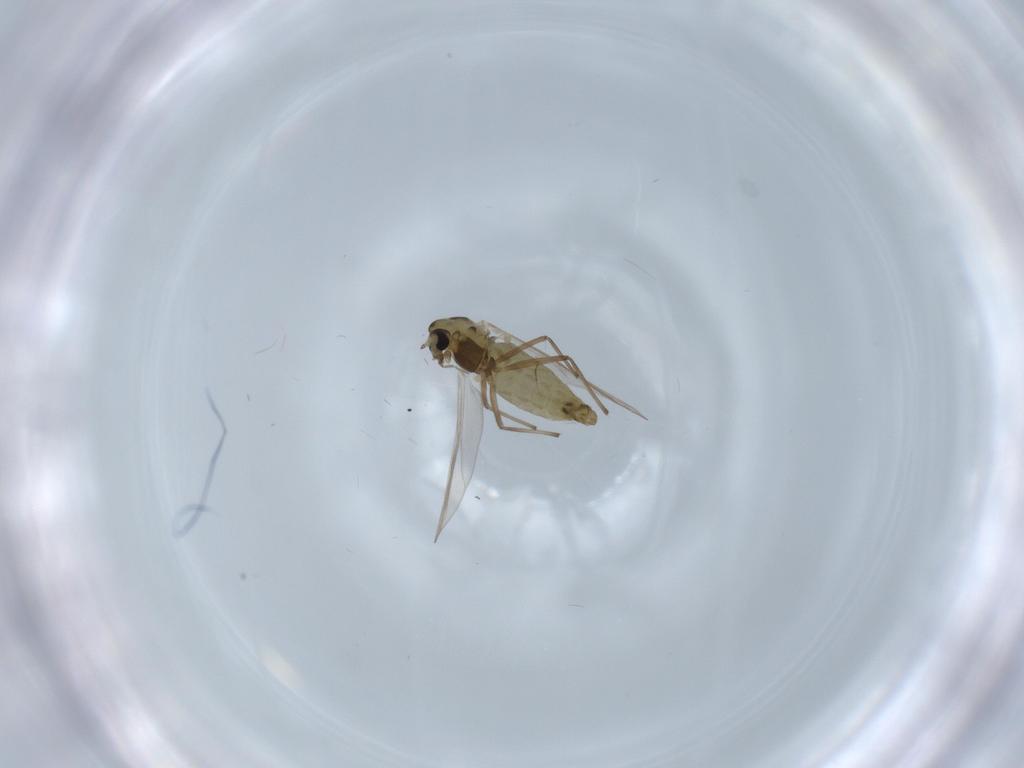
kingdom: Animalia
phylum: Arthropoda
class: Insecta
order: Diptera
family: Chironomidae
